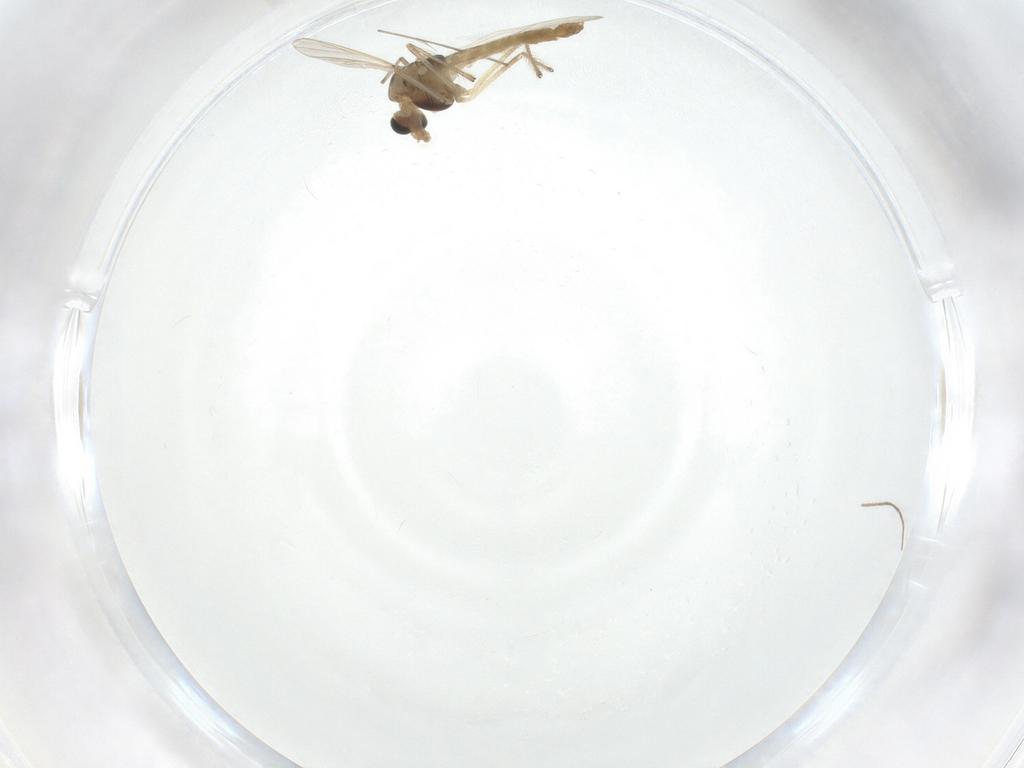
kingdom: Animalia
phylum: Arthropoda
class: Insecta
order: Diptera
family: Chironomidae
